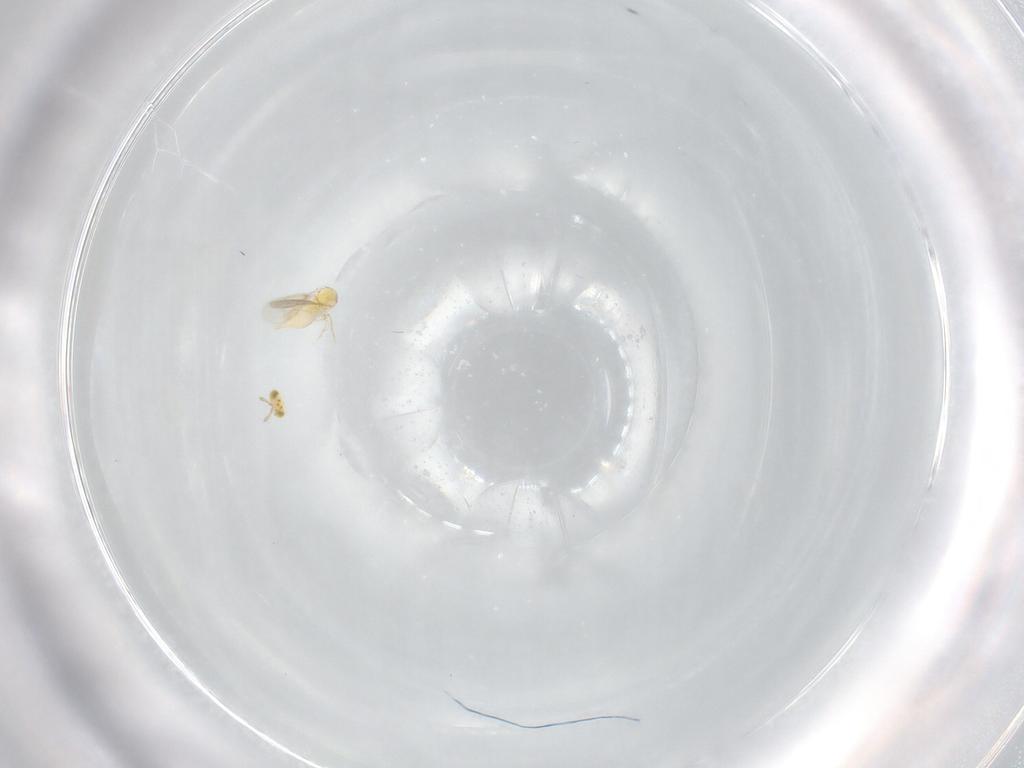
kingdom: Animalia
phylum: Arthropoda
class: Insecta
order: Hymenoptera
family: Aphelinidae
